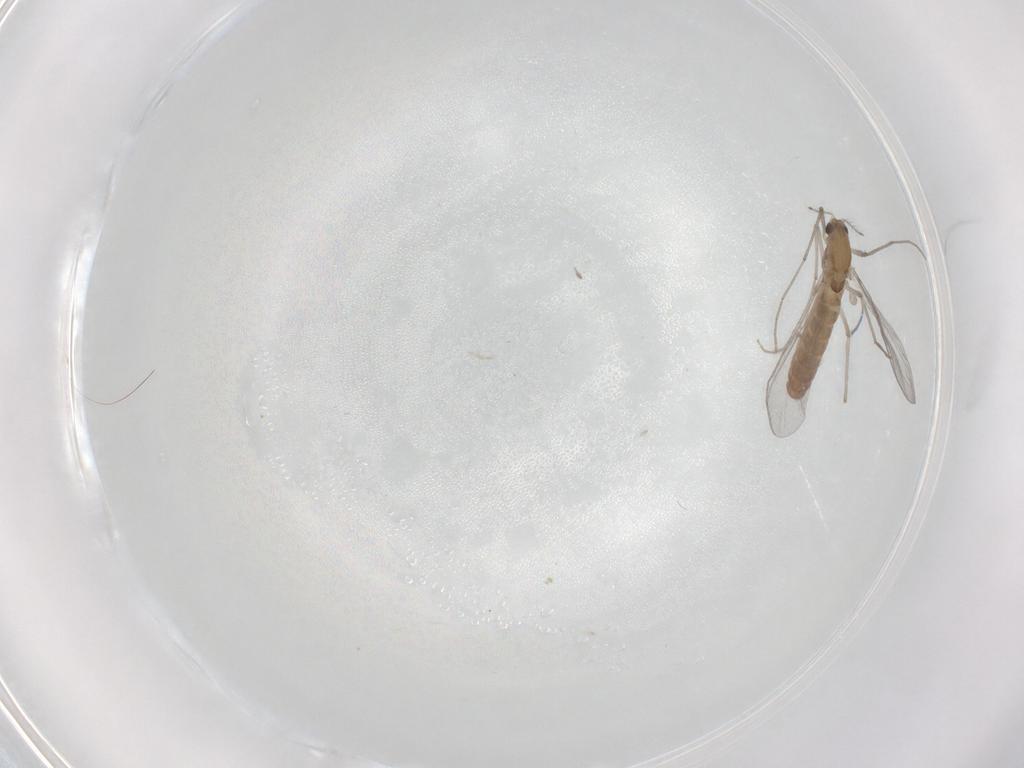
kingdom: Animalia
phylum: Arthropoda
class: Insecta
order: Diptera
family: Chironomidae
